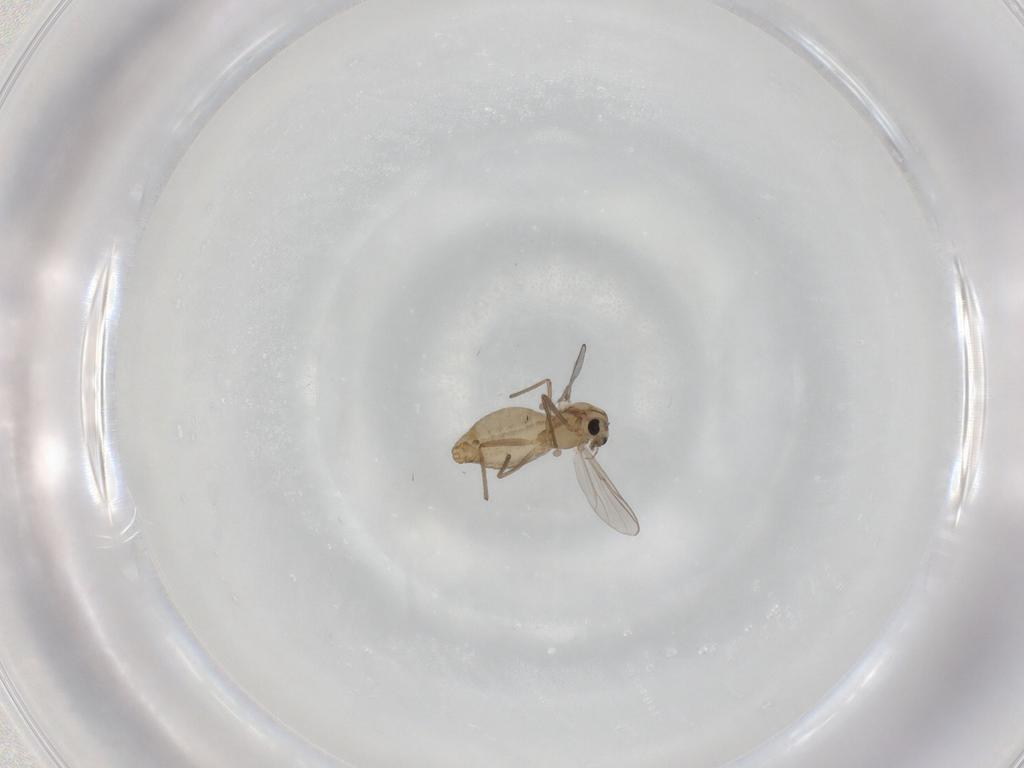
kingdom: Animalia
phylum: Arthropoda
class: Insecta
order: Diptera
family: Chironomidae
